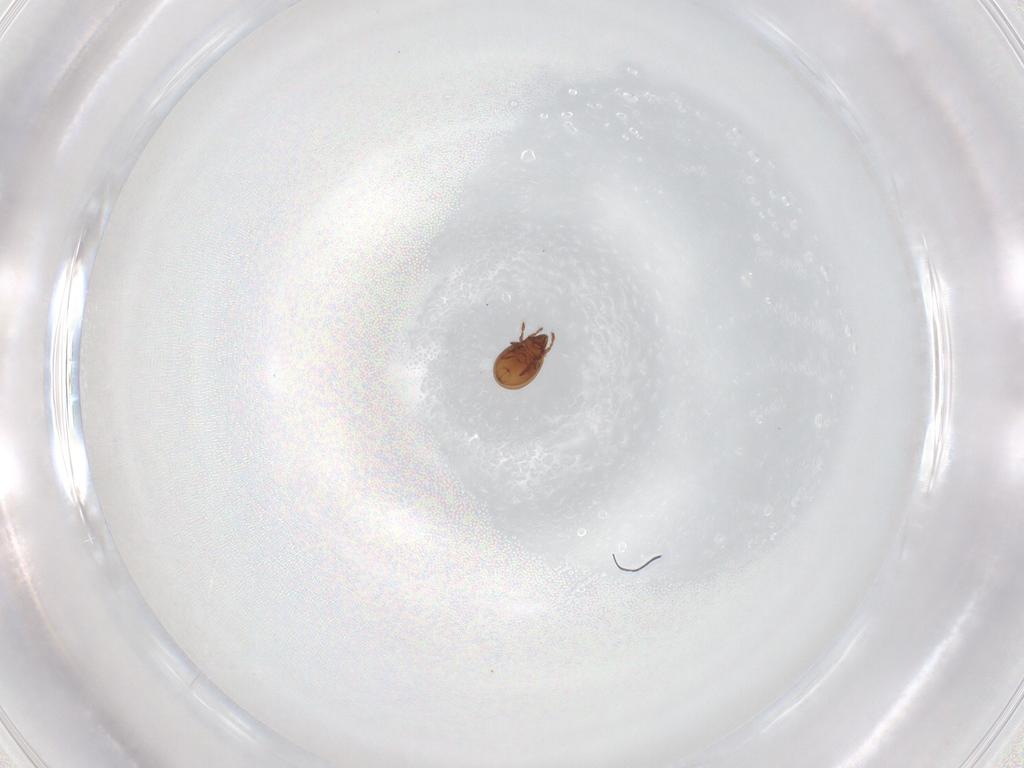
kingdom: Animalia
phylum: Arthropoda
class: Arachnida
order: Sarcoptiformes
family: Liacaridae
